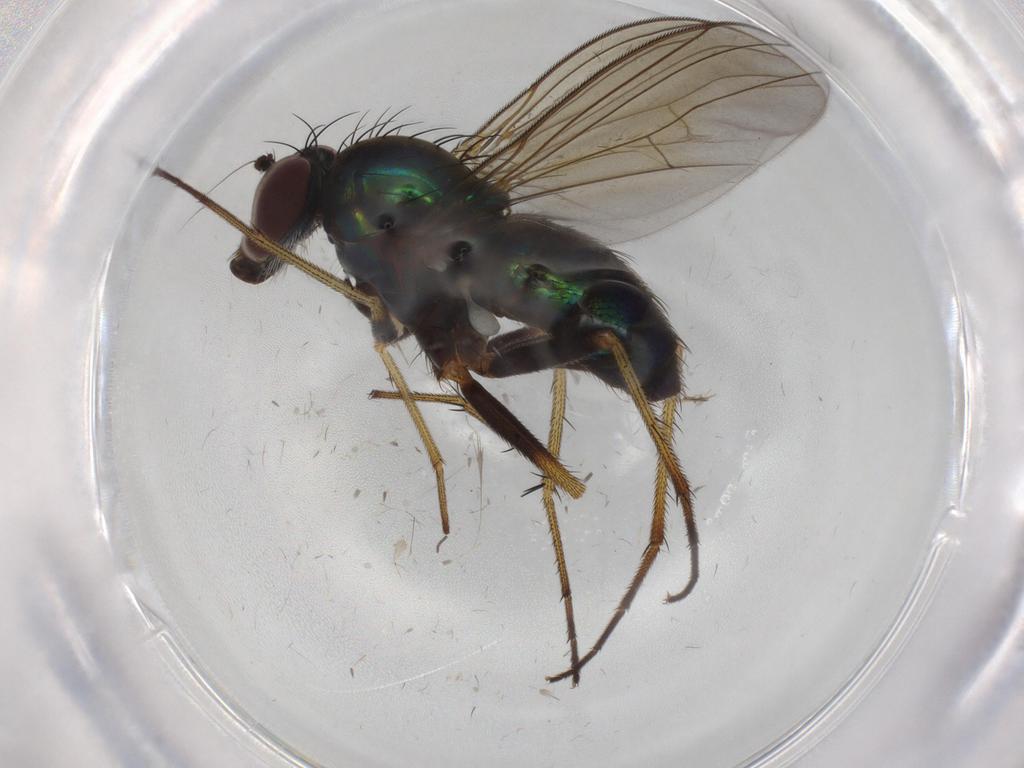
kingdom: Animalia
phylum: Arthropoda
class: Insecta
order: Diptera
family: Dolichopodidae
